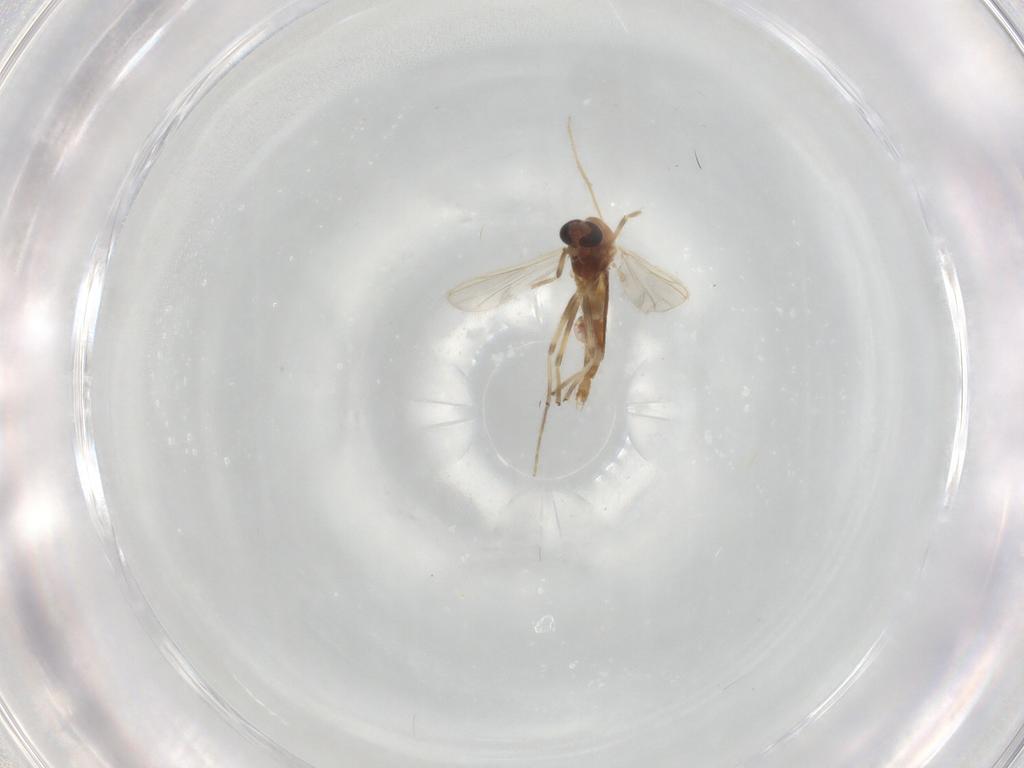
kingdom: Animalia
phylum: Arthropoda
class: Insecta
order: Diptera
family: Chironomidae
